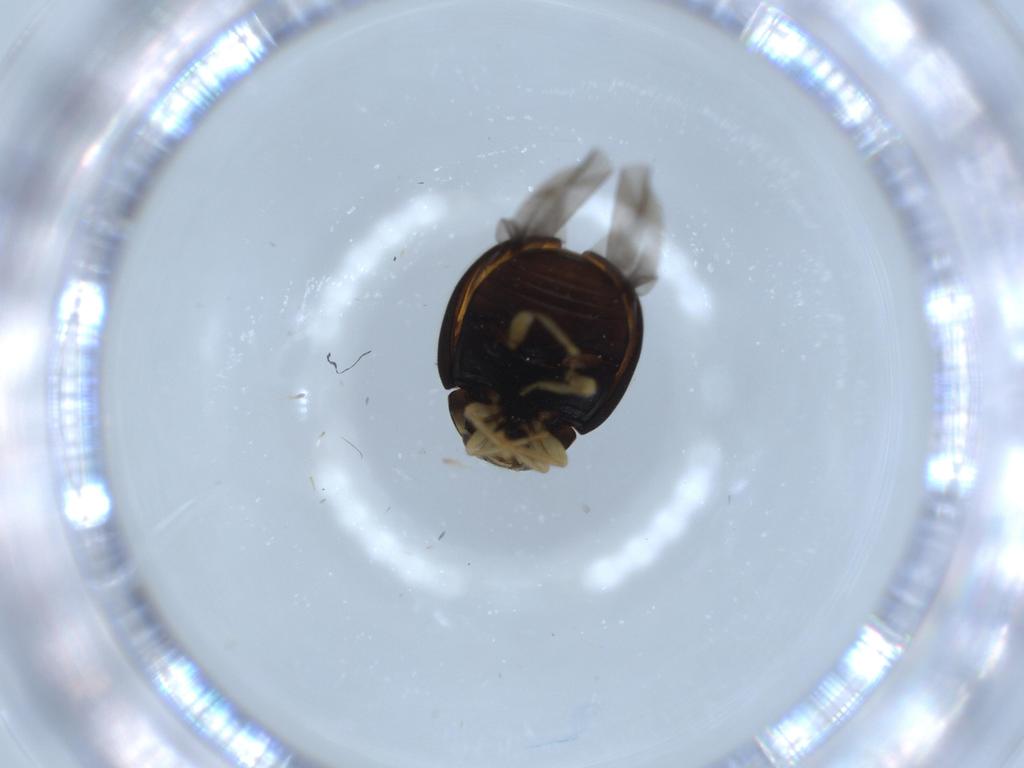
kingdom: Animalia
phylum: Arthropoda
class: Insecta
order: Coleoptera
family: Coccinellidae
